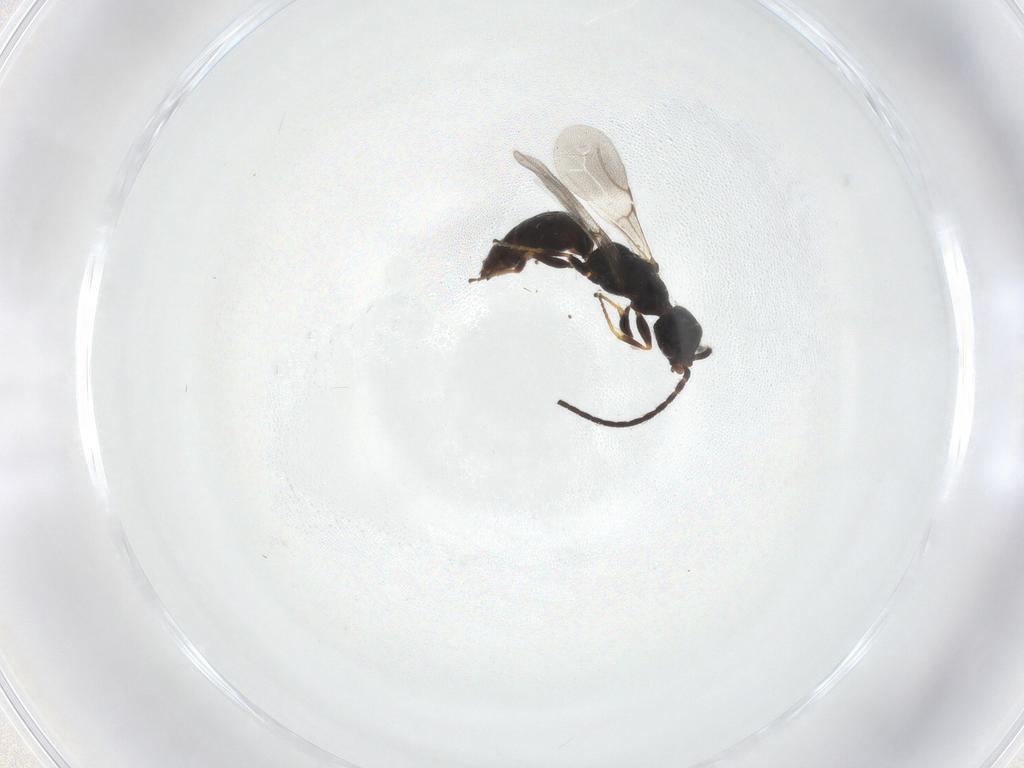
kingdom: Animalia
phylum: Arthropoda
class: Insecta
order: Hymenoptera
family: Bethylidae
